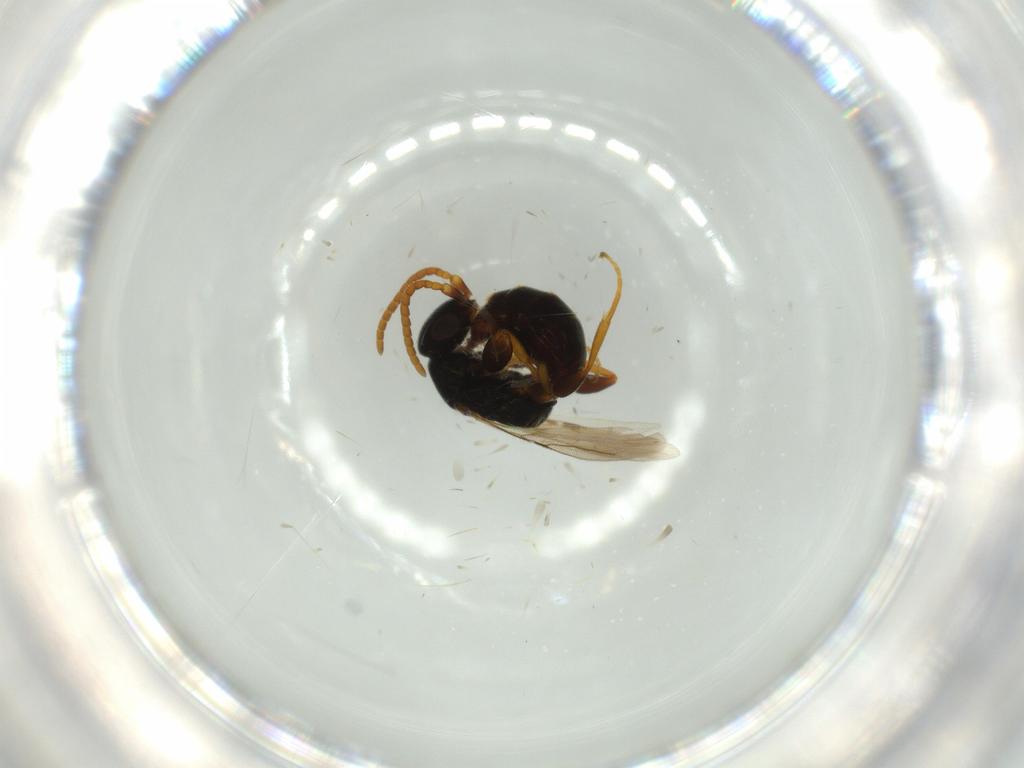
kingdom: Animalia
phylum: Arthropoda
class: Insecta
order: Hymenoptera
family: Bethylidae
